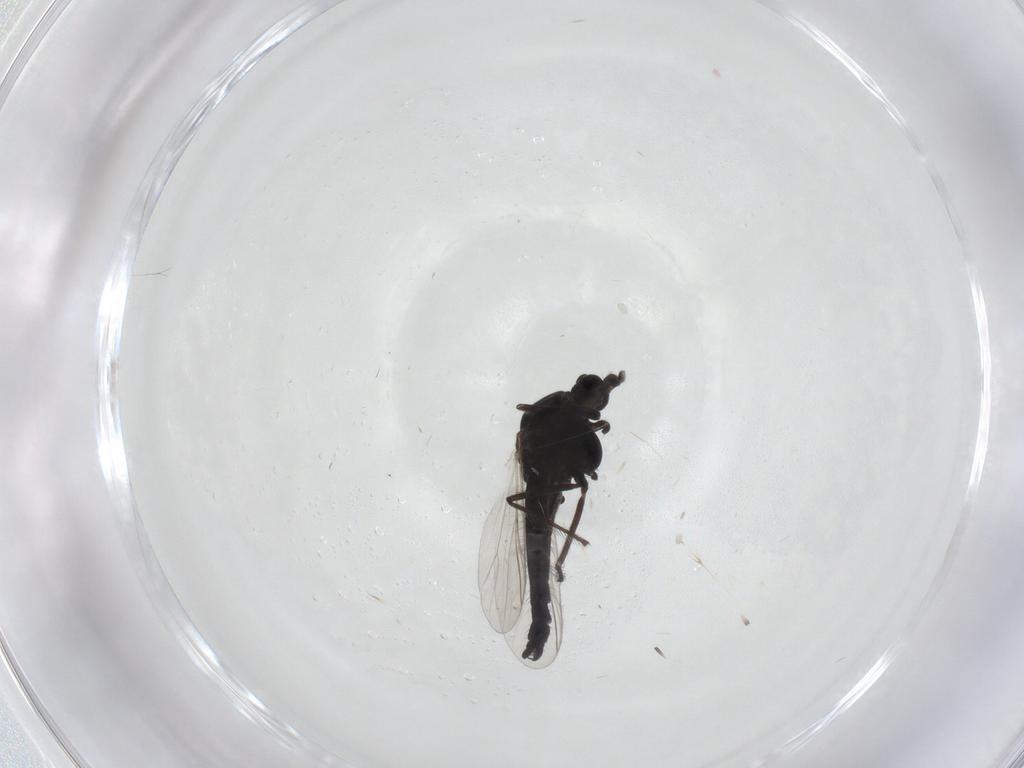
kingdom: Animalia
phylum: Arthropoda
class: Insecta
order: Diptera
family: Chironomidae
